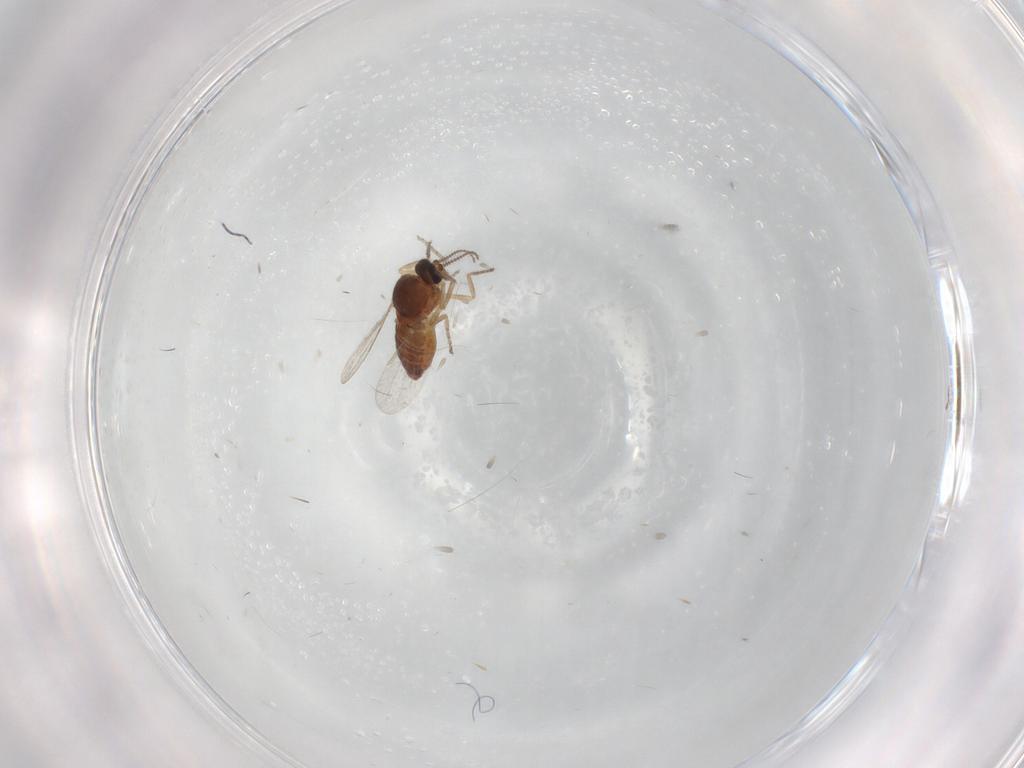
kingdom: Animalia
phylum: Arthropoda
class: Insecta
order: Diptera
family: Ceratopogonidae
